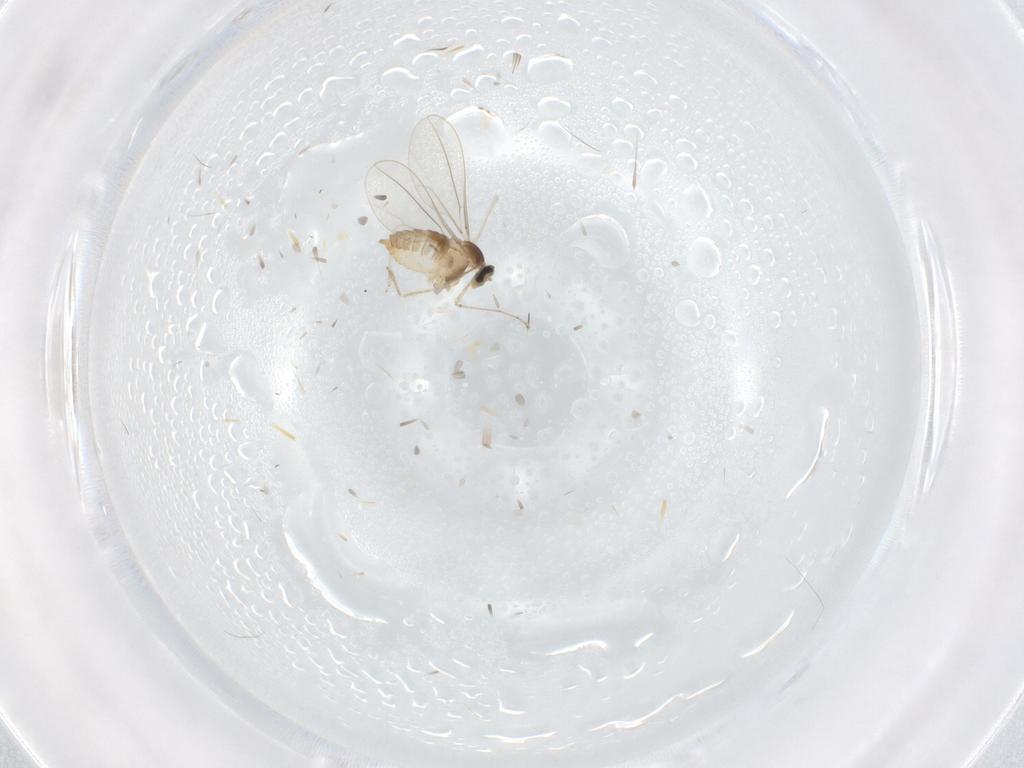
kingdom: Animalia
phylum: Arthropoda
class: Insecta
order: Diptera
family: Cecidomyiidae
